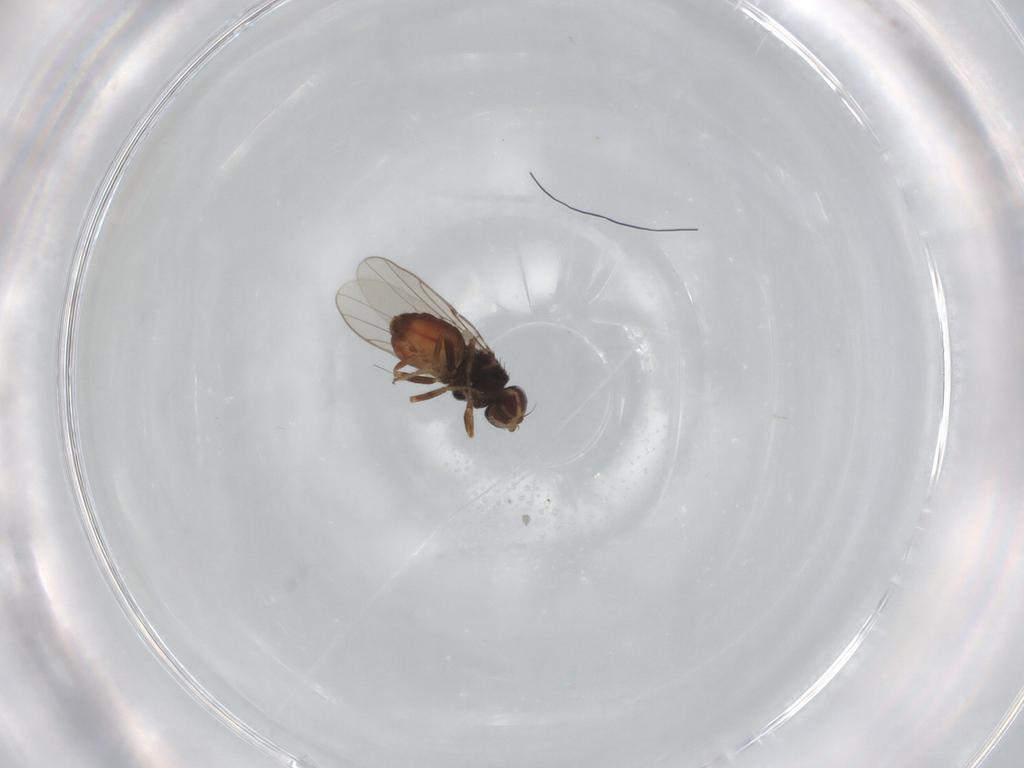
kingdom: Animalia
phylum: Arthropoda
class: Insecta
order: Diptera
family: Chloropidae
